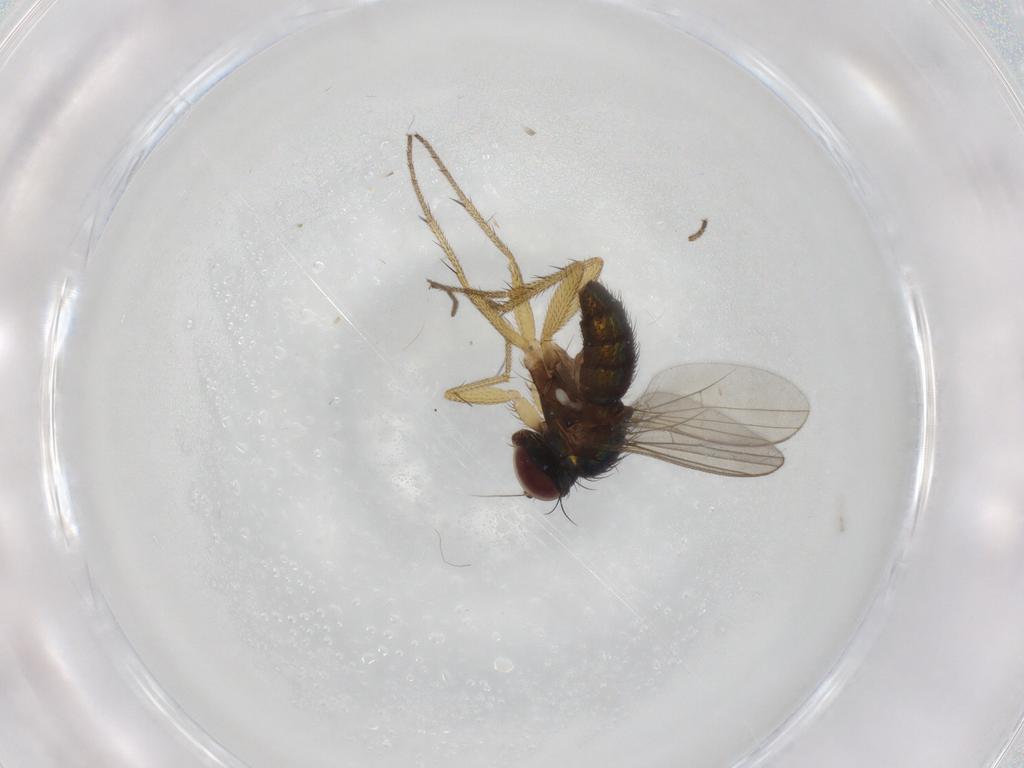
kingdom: Animalia
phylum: Arthropoda
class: Insecta
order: Diptera
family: Dolichopodidae
